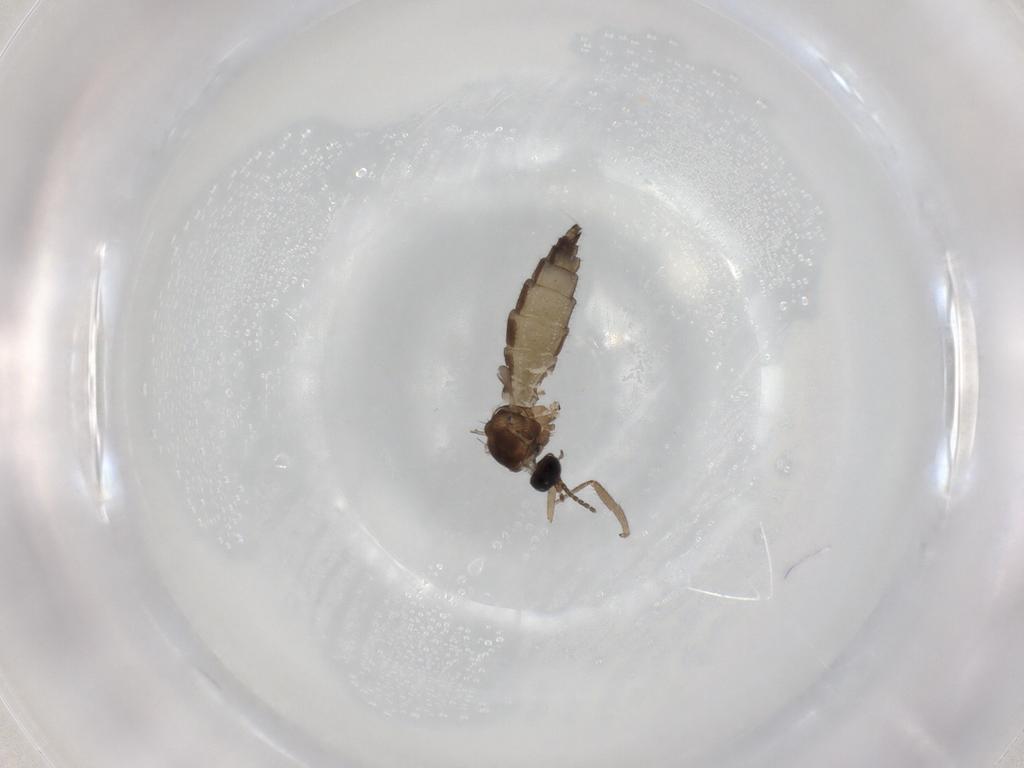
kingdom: Animalia
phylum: Arthropoda
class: Insecta
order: Diptera
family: Sciaridae
